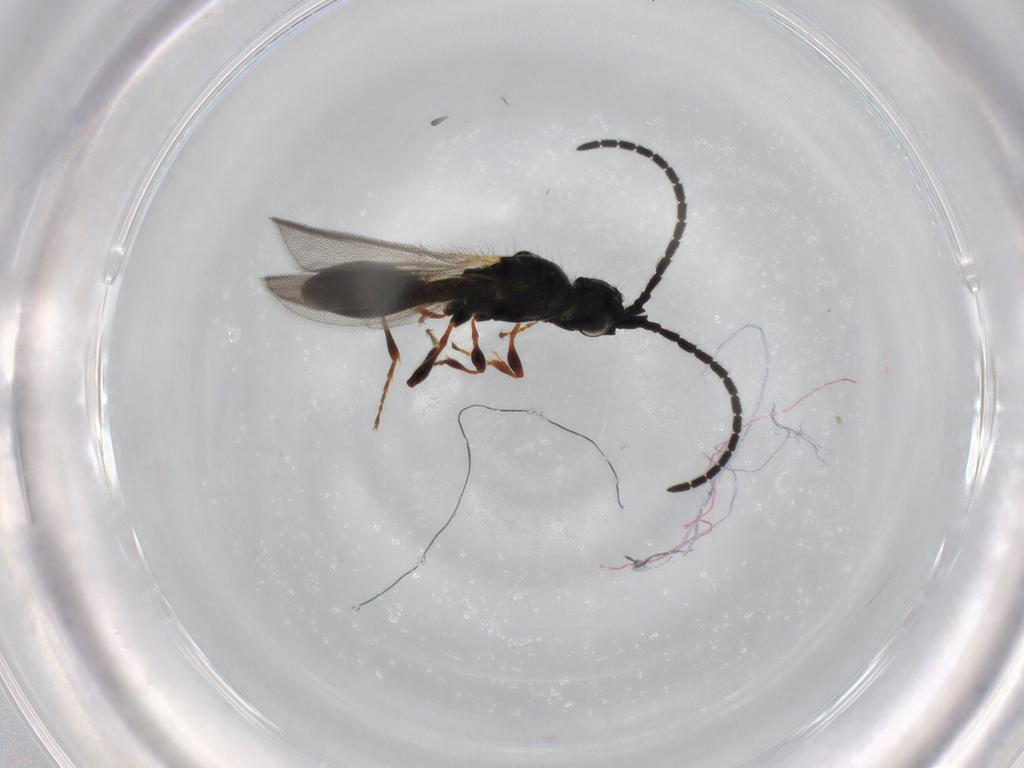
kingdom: Animalia
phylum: Arthropoda
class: Insecta
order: Hymenoptera
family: Diapriidae
